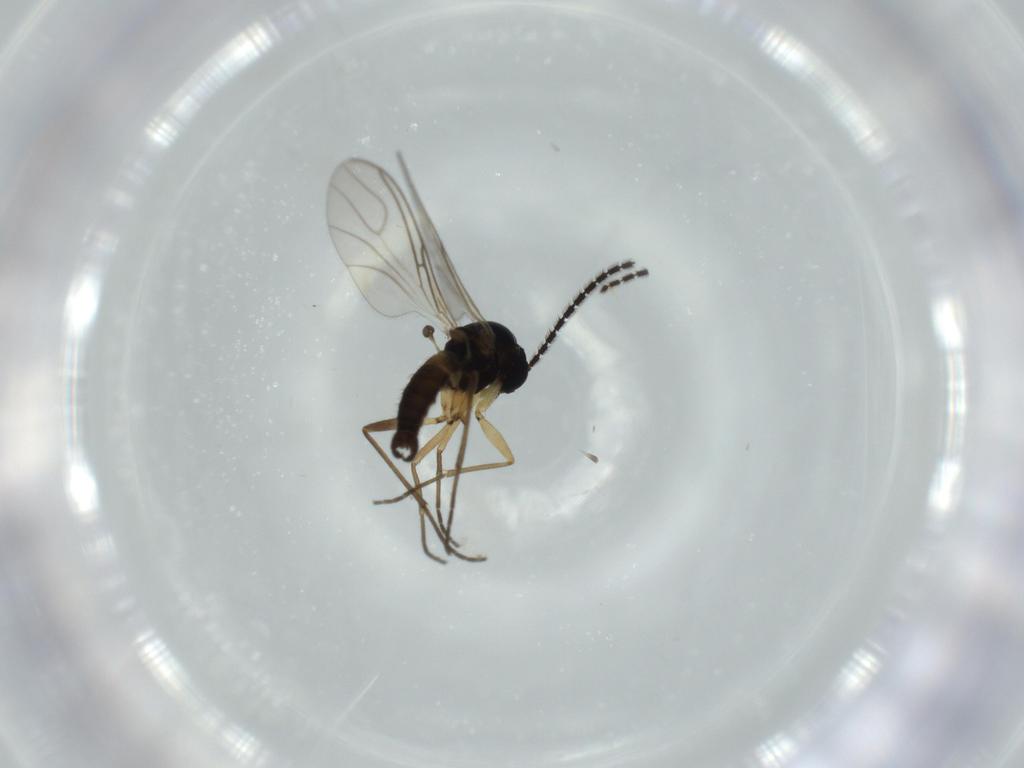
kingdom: Animalia
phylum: Arthropoda
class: Insecta
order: Diptera
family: Sciaridae
